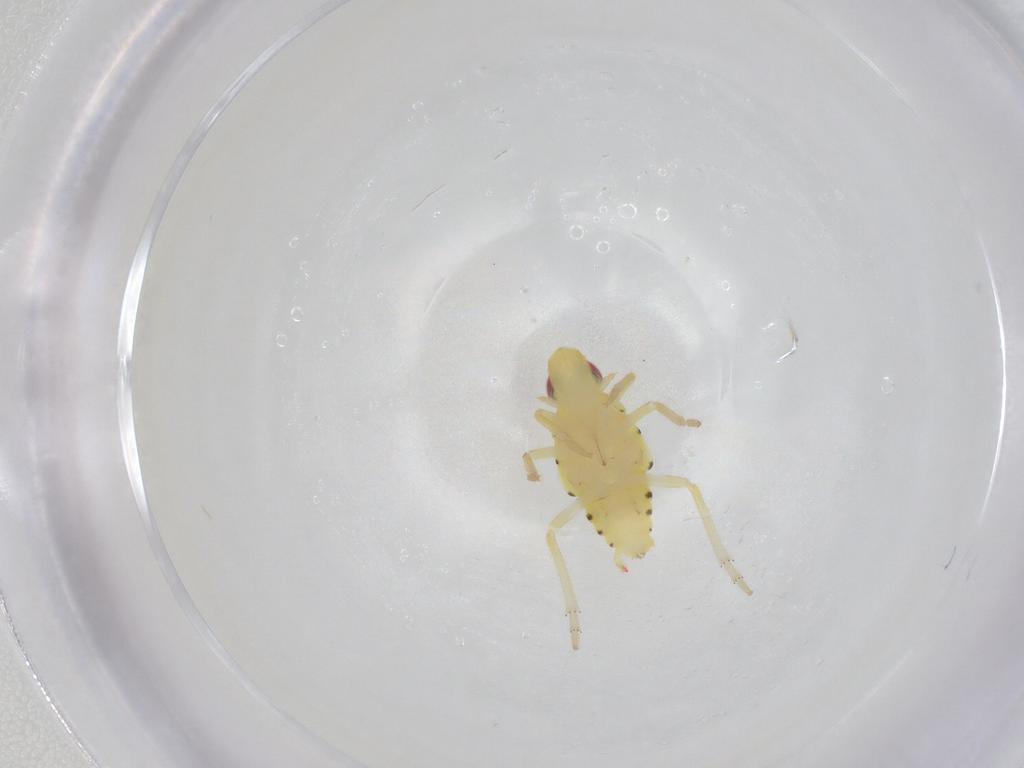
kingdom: Animalia
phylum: Arthropoda
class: Insecta
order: Hemiptera
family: Tropiduchidae
